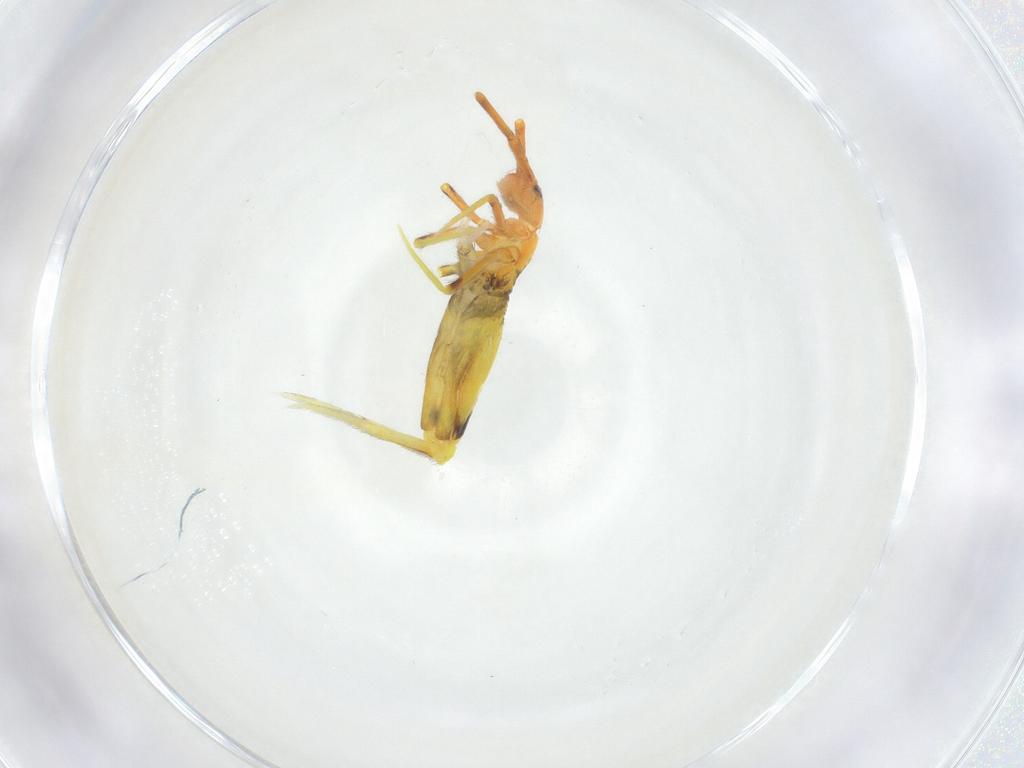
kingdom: Animalia
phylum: Arthropoda
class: Collembola
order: Entomobryomorpha
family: Entomobryidae
